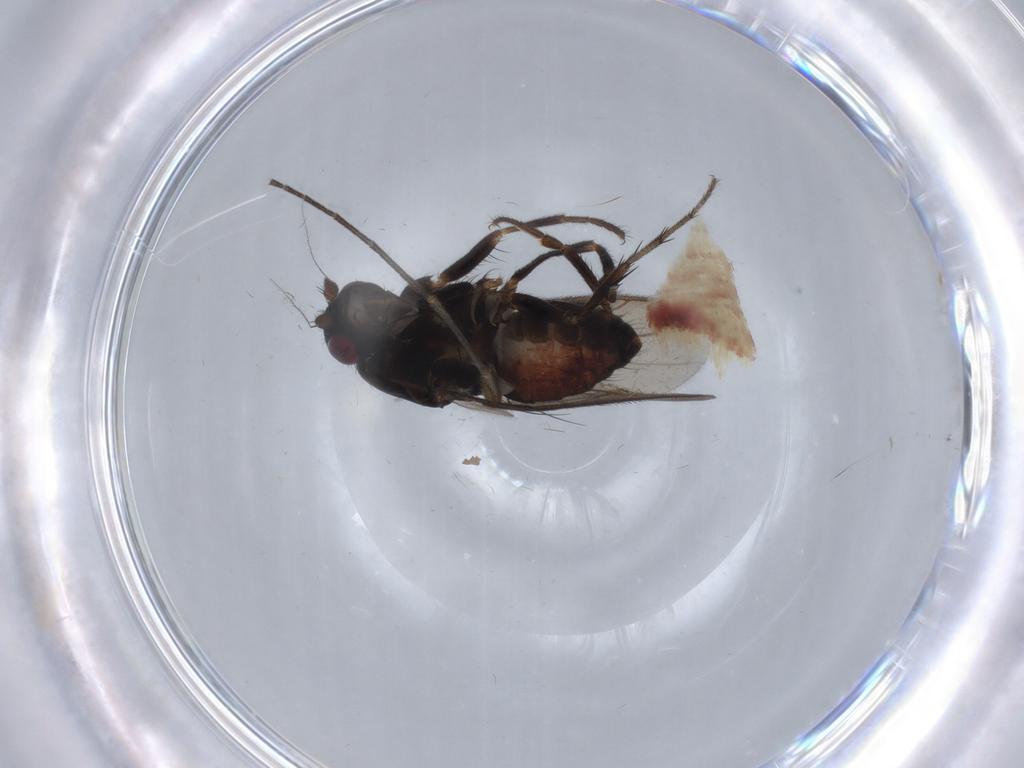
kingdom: Animalia
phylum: Arthropoda
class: Insecta
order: Diptera
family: Sphaeroceridae
